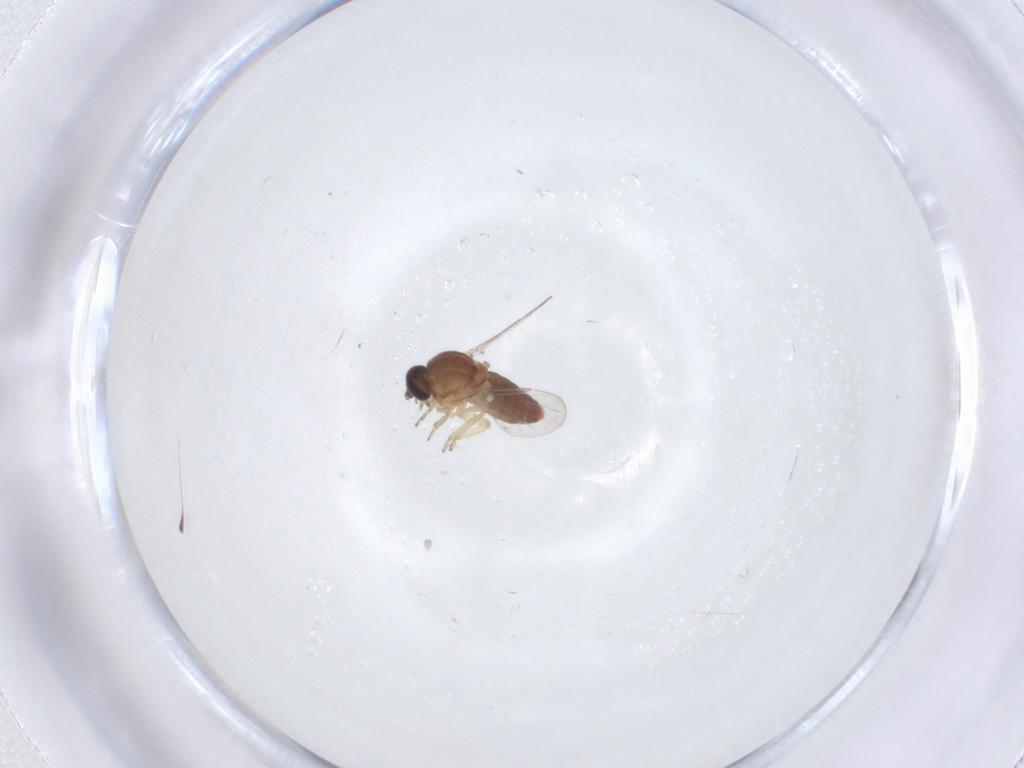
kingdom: Animalia
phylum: Arthropoda
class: Insecta
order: Diptera
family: Ceratopogonidae
